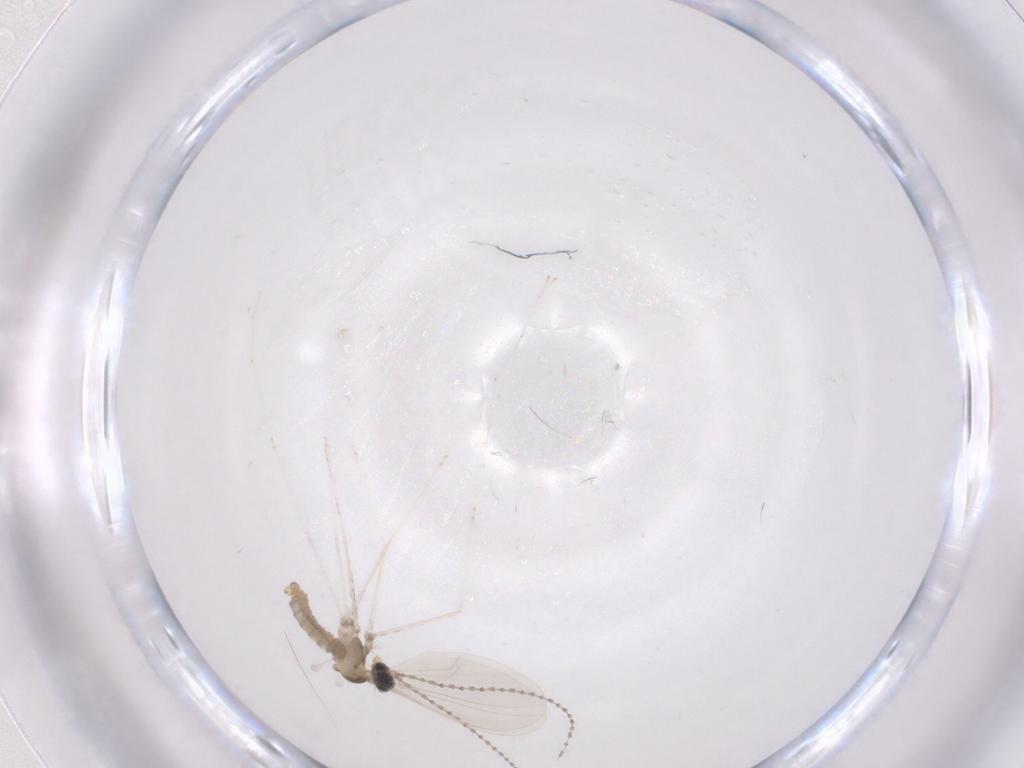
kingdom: Animalia
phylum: Arthropoda
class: Insecta
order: Diptera
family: Cecidomyiidae
